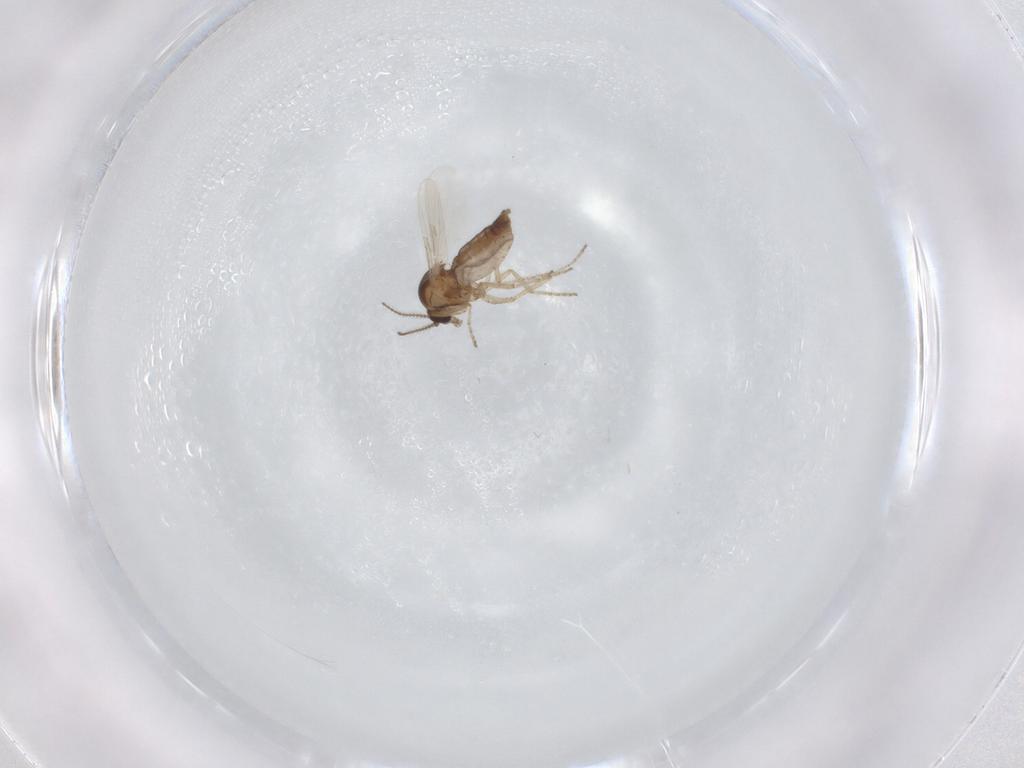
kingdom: Animalia
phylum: Arthropoda
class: Insecta
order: Diptera
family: Ceratopogonidae
